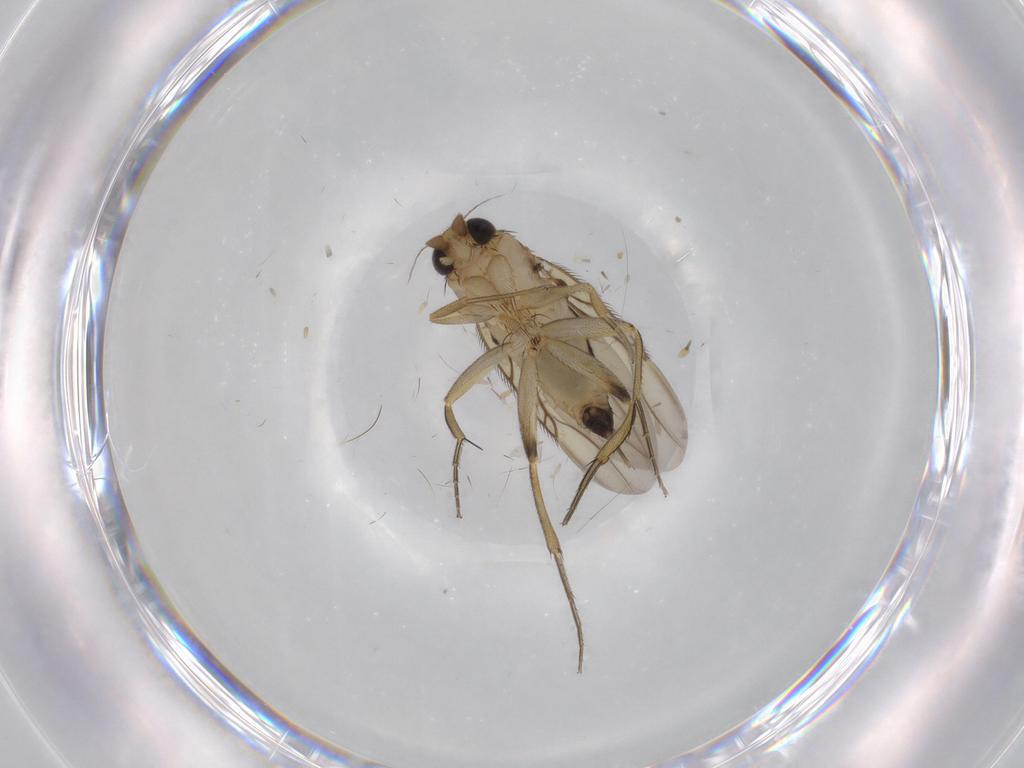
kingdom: Animalia
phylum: Arthropoda
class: Insecta
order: Diptera
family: Phoridae
